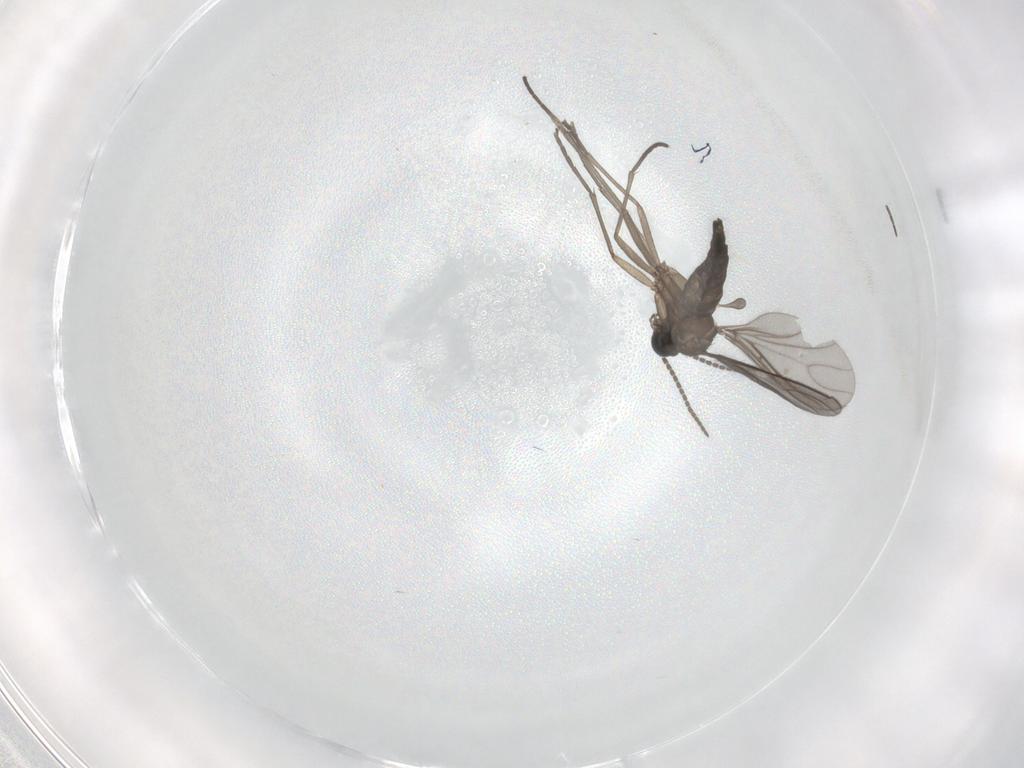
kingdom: Animalia
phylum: Arthropoda
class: Insecta
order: Diptera
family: Sciaridae
